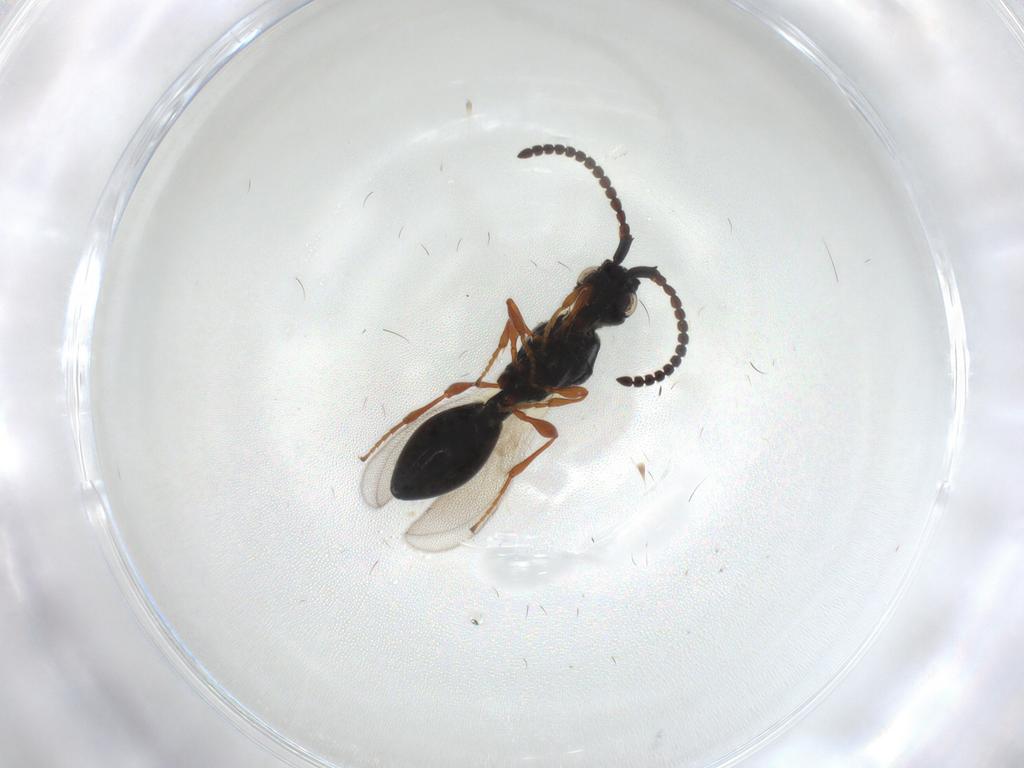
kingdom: Animalia
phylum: Arthropoda
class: Insecta
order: Hymenoptera
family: Diapriidae
